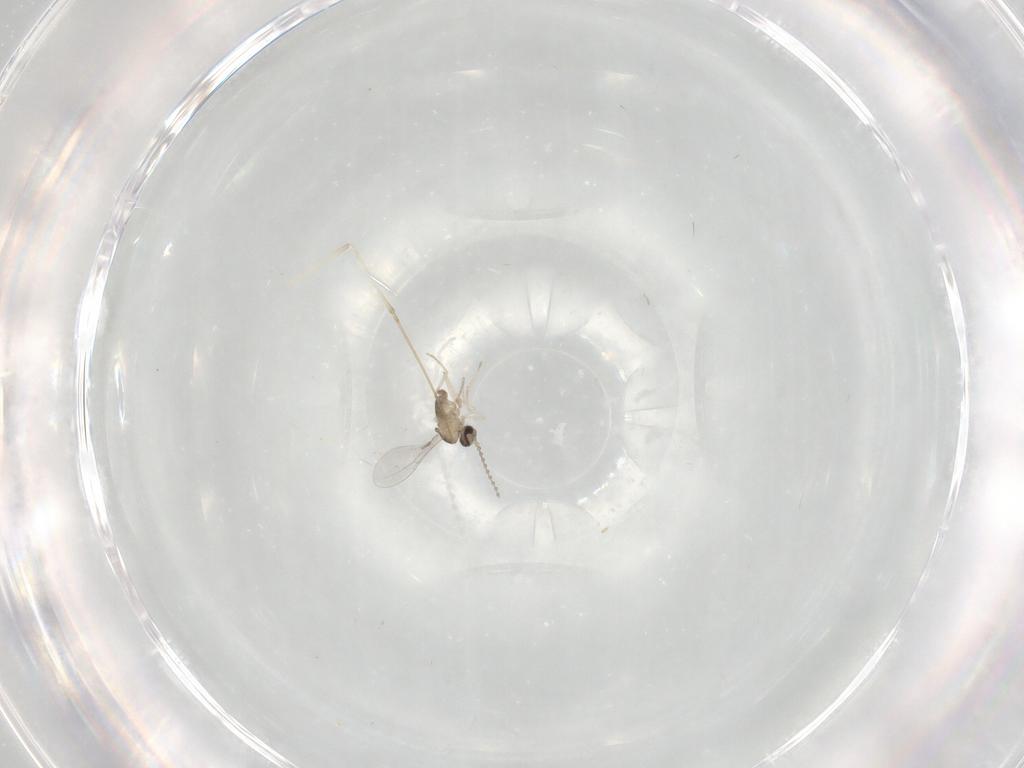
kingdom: Animalia
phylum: Arthropoda
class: Insecta
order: Diptera
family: Cecidomyiidae
